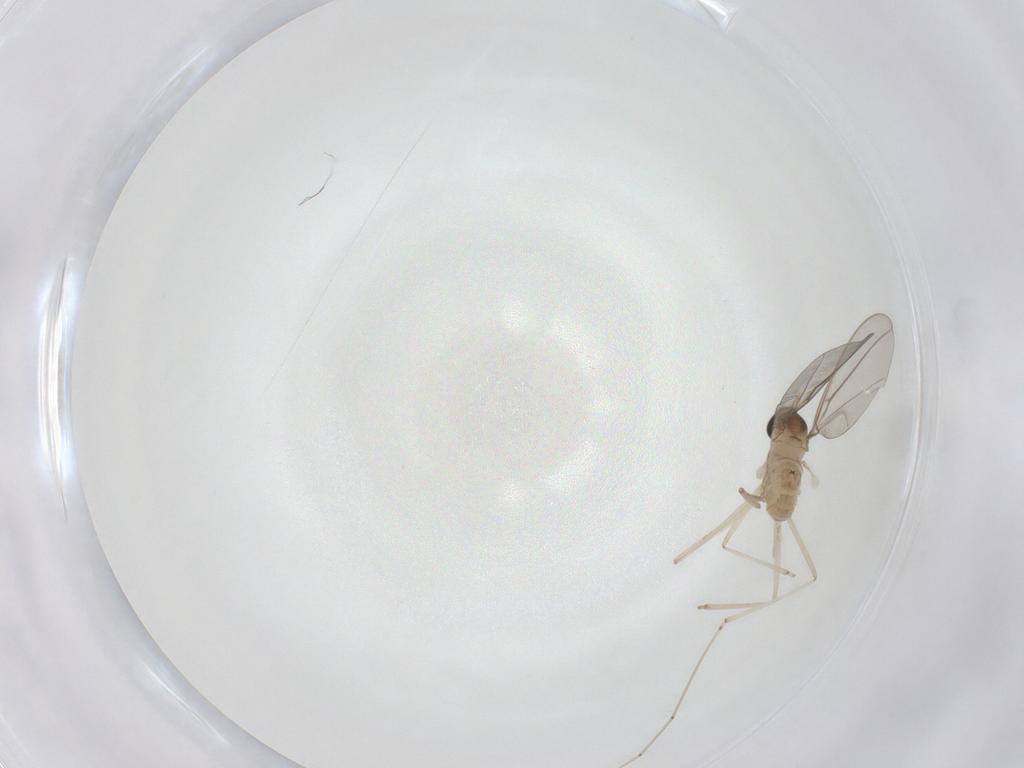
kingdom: Animalia
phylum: Arthropoda
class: Insecta
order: Diptera
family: Cecidomyiidae
